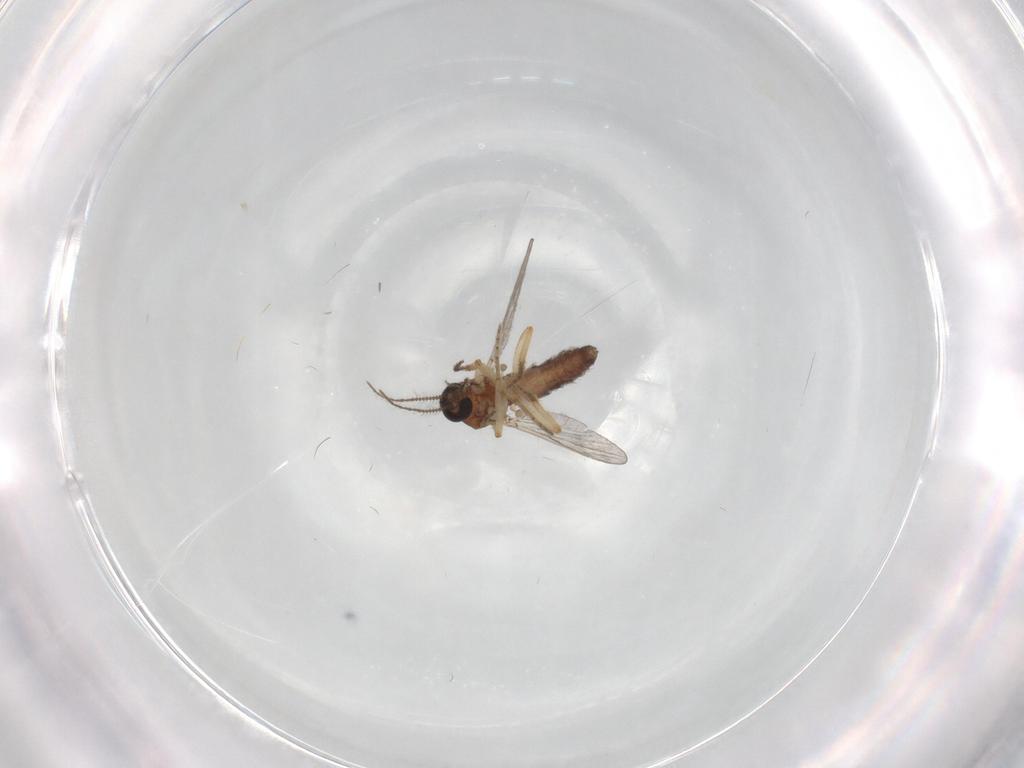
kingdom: Animalia
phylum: Arthropoda
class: Insecta
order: Diptera
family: Ceratopogonidae
